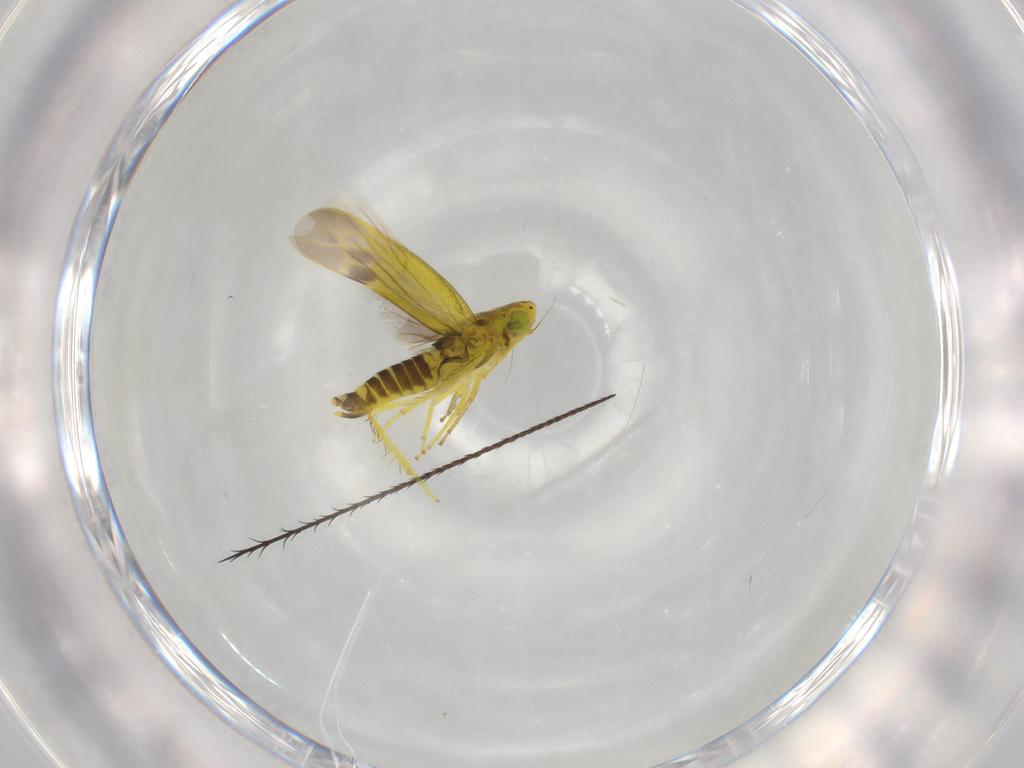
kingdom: Animalia
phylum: Arthropoda
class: Insecta
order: Hemiptera
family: Cicadellidae
